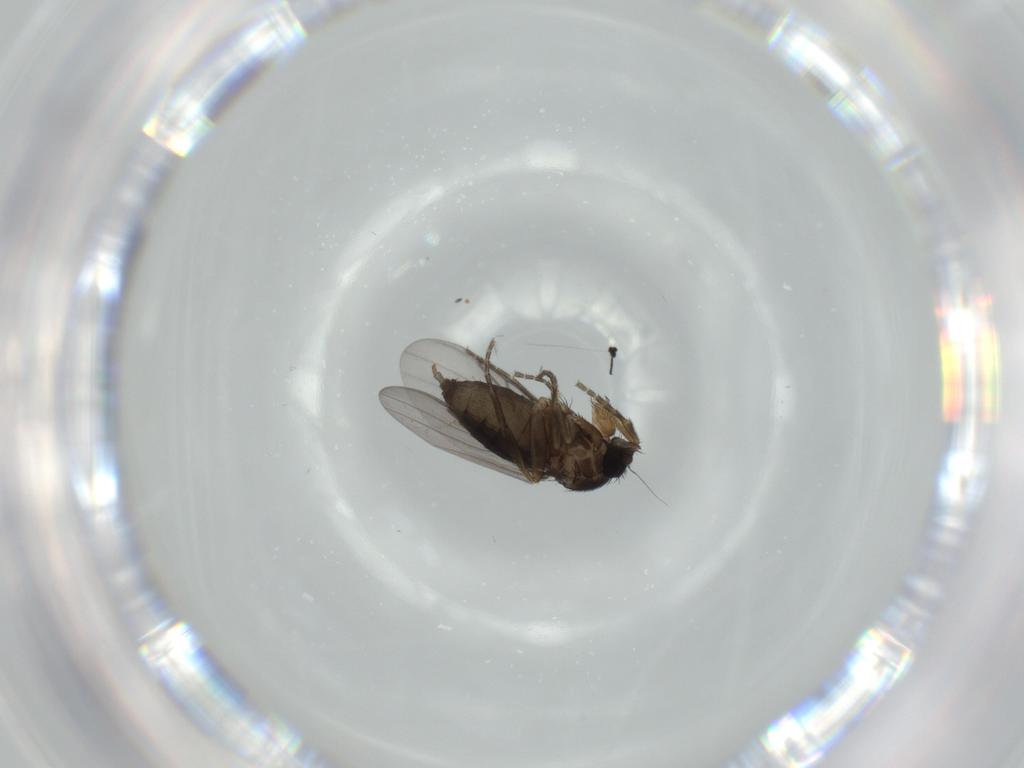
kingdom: Animalia
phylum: Arthropoda
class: Insecta
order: Diptera
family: Phoridae
